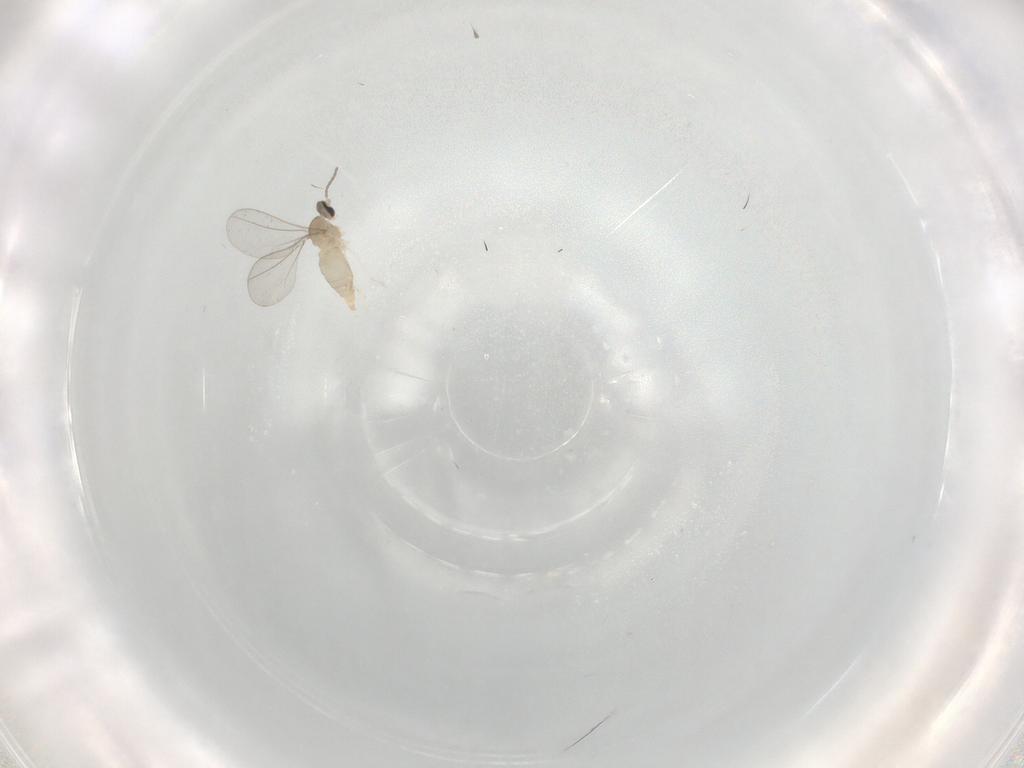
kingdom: Animalia
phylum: Arthropoda
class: Insecta
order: Diptera
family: Cecidomyiidae
